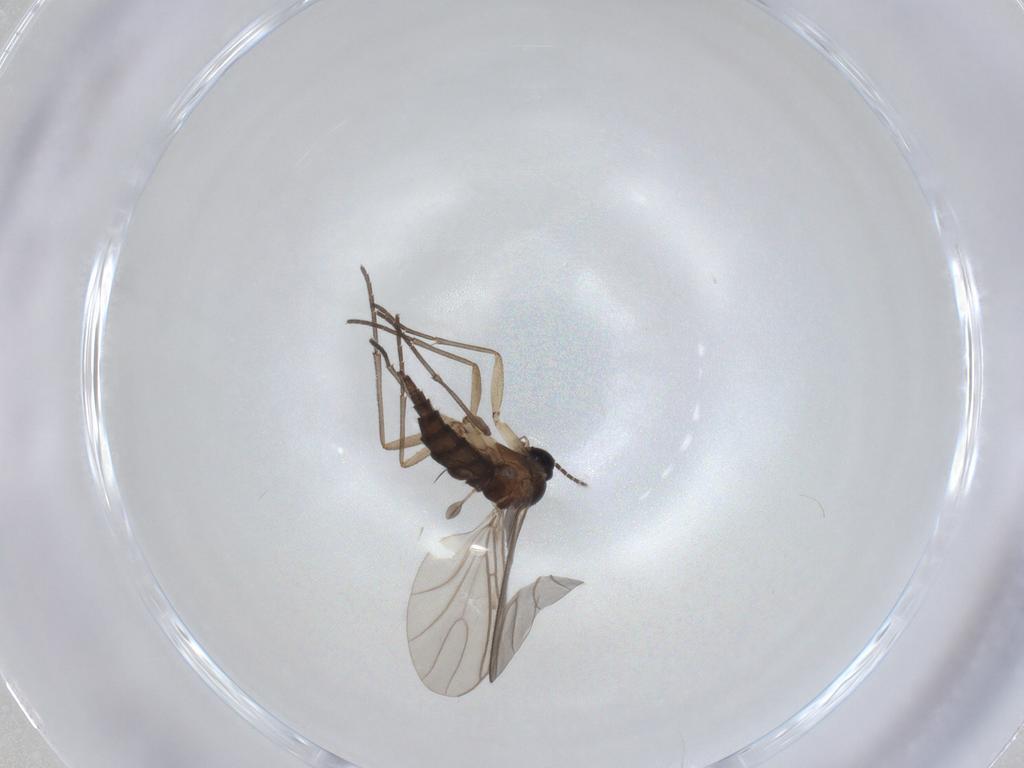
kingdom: Animalia
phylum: Arthropoda
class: Insecta
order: Diptera
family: Sciaridae
